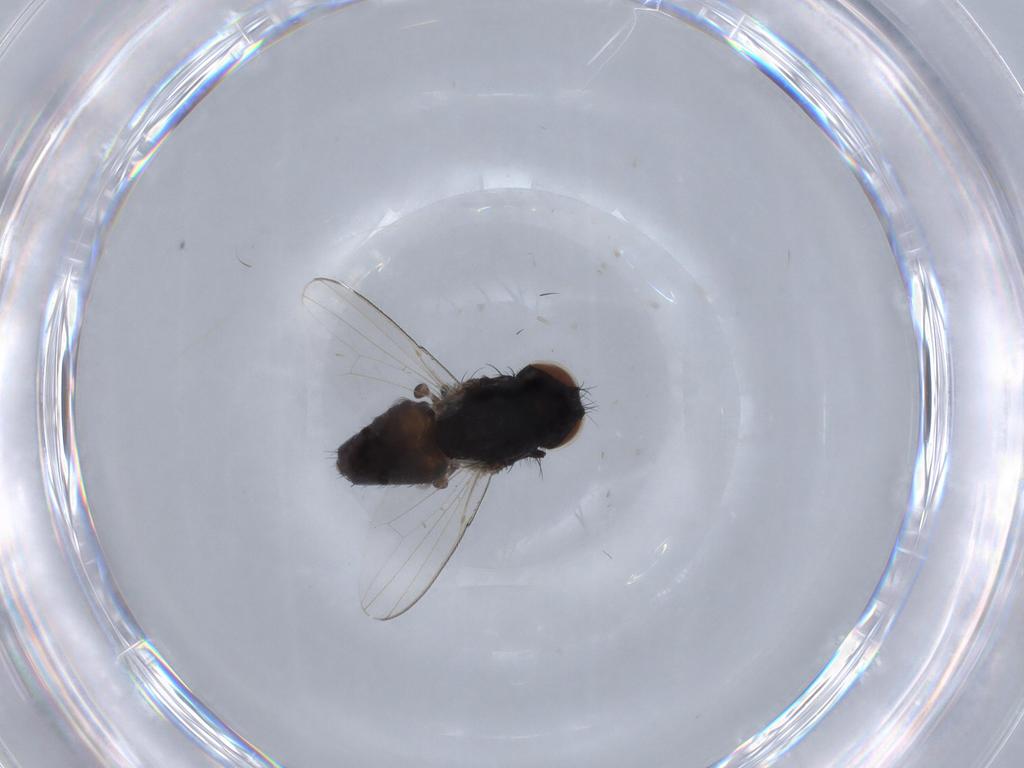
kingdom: Animalia
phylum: Arthropoda
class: Insecta
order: Diptera
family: Milichiidae
